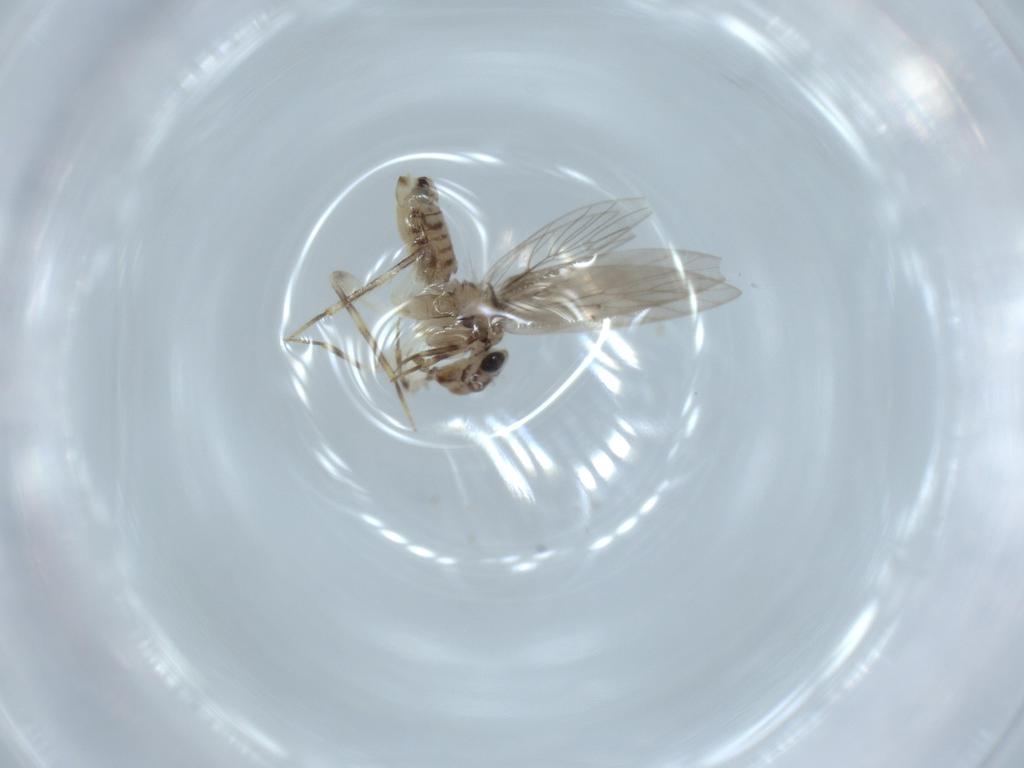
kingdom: Animalia
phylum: Arthropoda
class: Insecta
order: Psocodea
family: Lepidopsocidae
